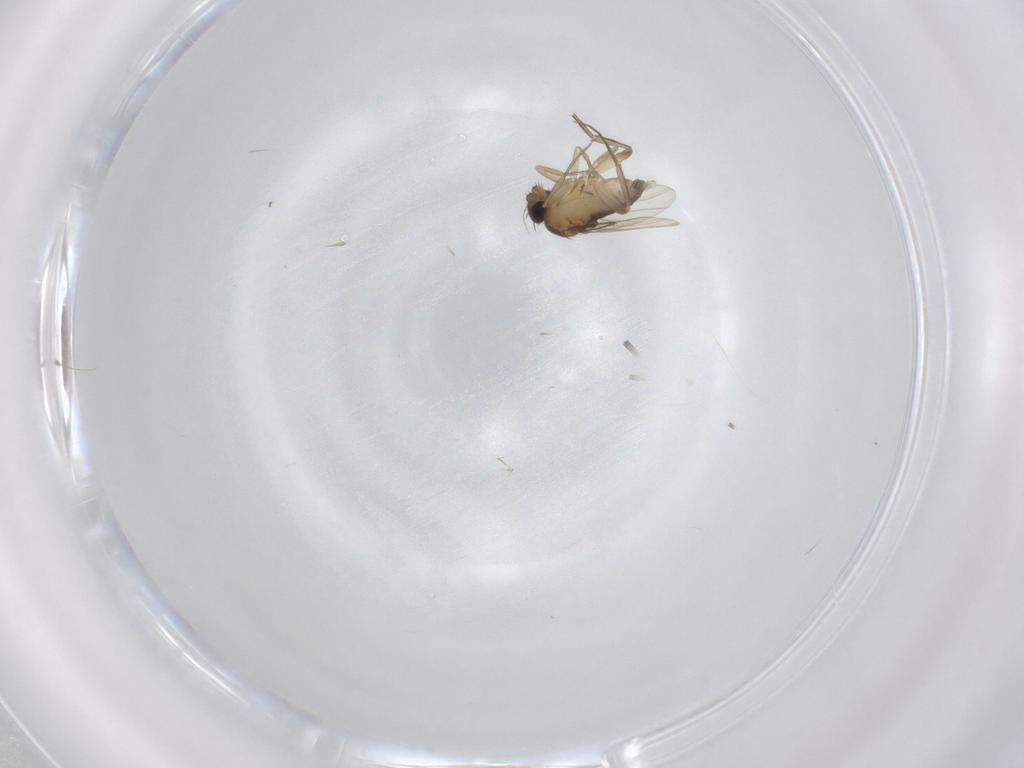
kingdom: Animalia
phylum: Arthropoda
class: Insecta
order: Diptera
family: Phoridae
